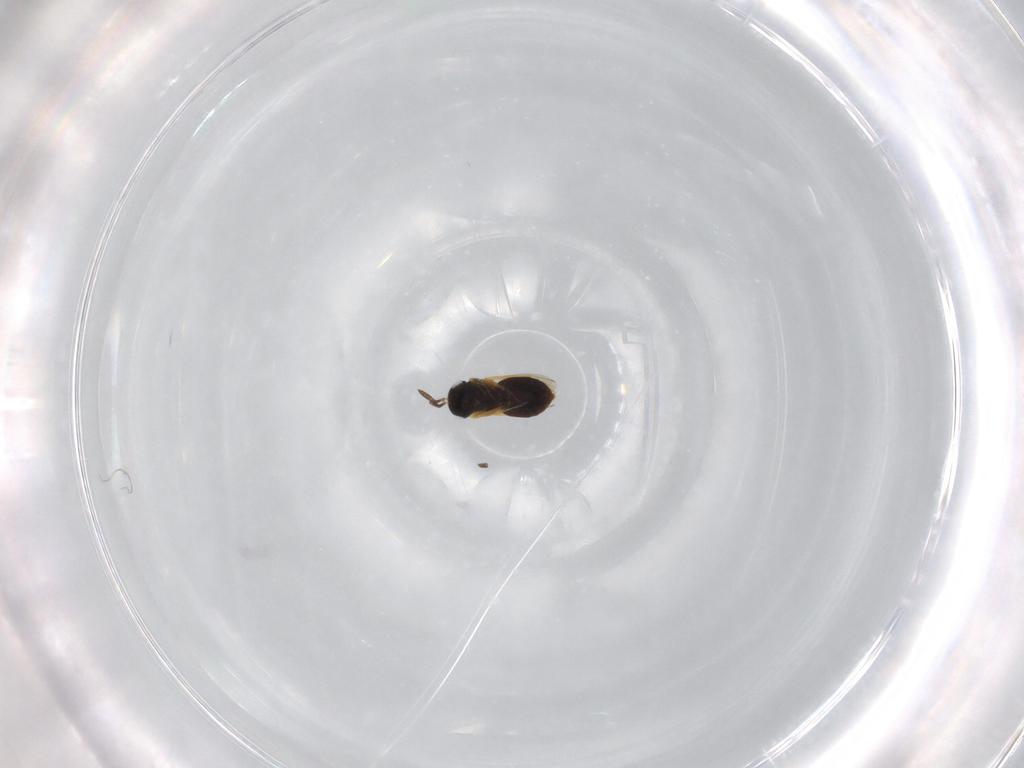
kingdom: Animalia
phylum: Arthropoda
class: Insecta
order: Hymenoptera
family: Scelionidae
